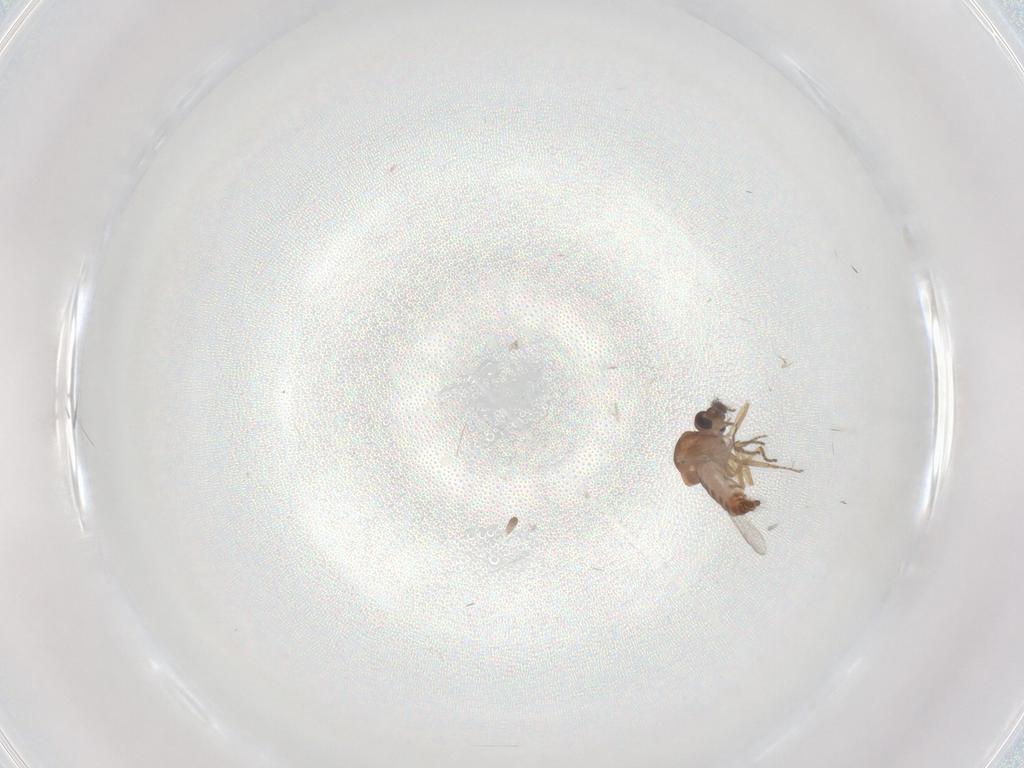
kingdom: Animalia
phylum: Arthropoda
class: Insecta
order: Diptera
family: Ceratopogonidae
